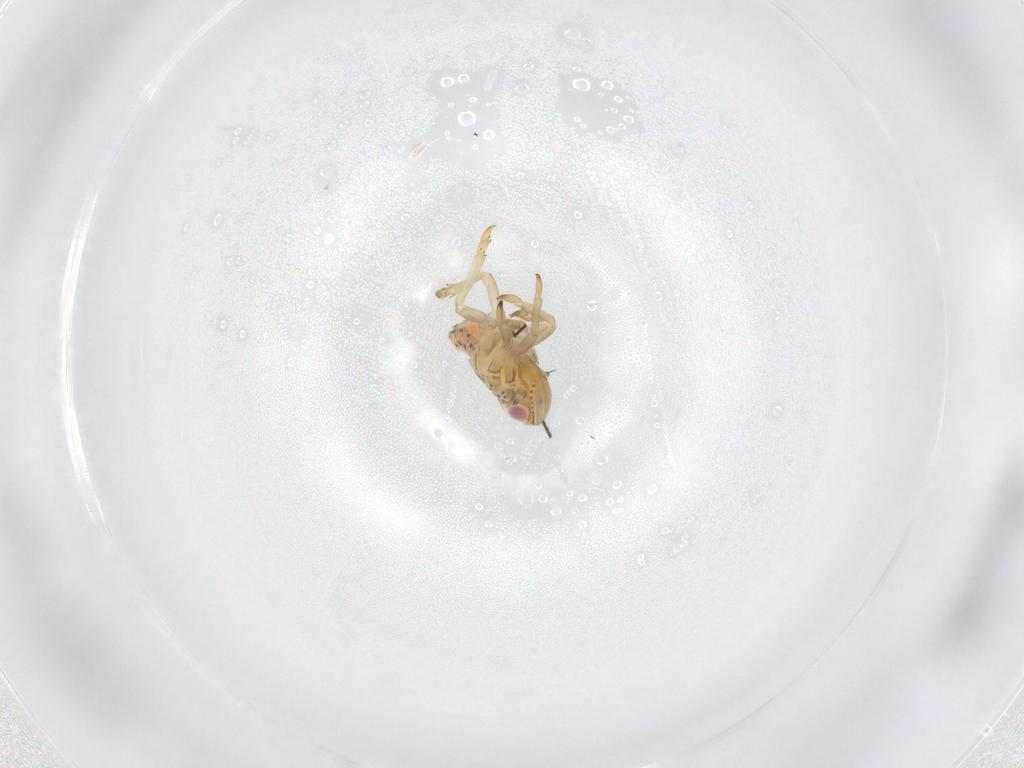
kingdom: Animalia
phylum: Arthropoda
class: Insecta
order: Hemiptera
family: Tropiduchidae
